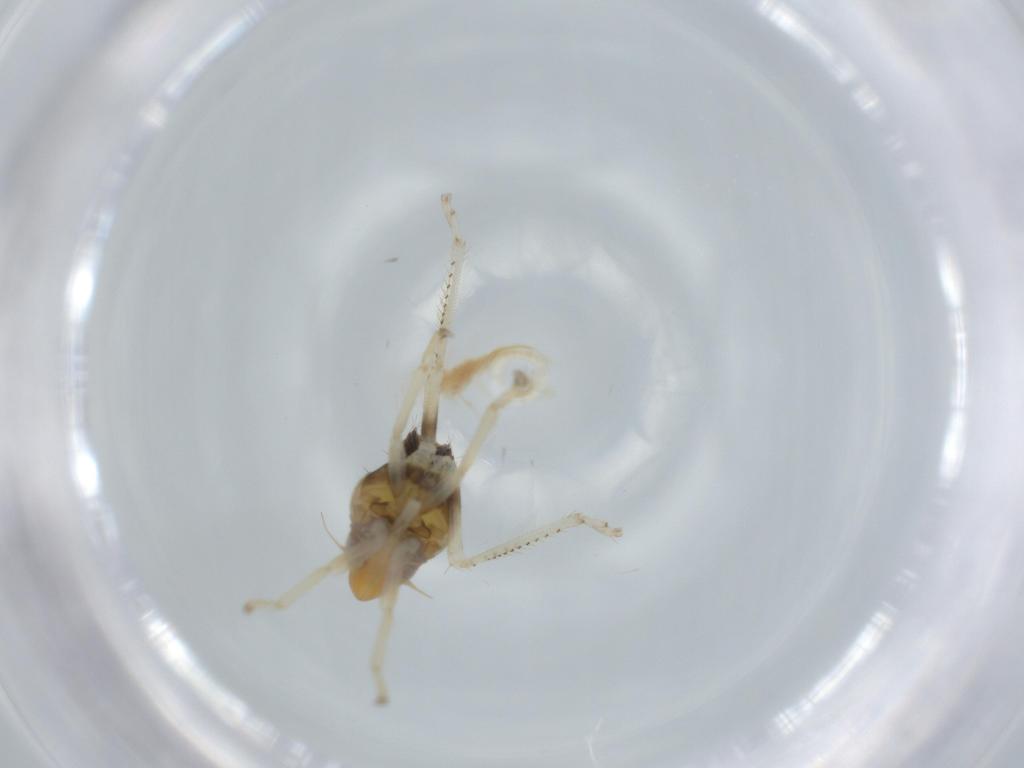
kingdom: Animalia
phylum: Arthropoda
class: Insecta
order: Hemiptera
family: Cicadellidae
